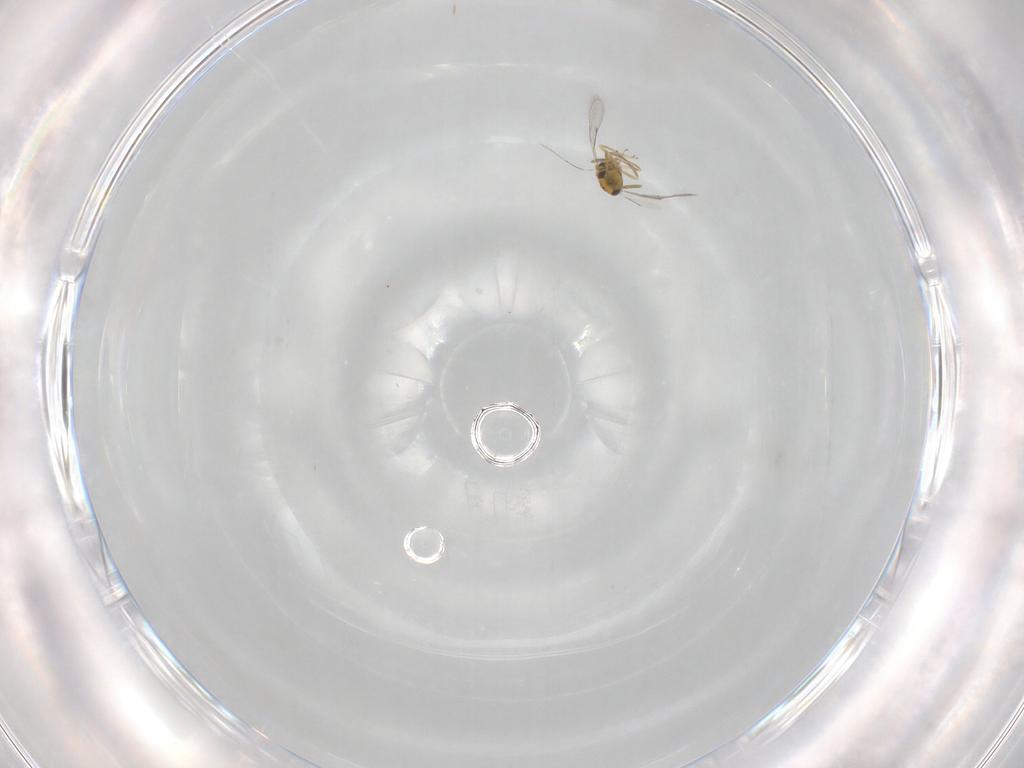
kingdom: Animalia
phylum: Arthropoda
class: Insecta
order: Hymenoptera
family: Aphelinidae
